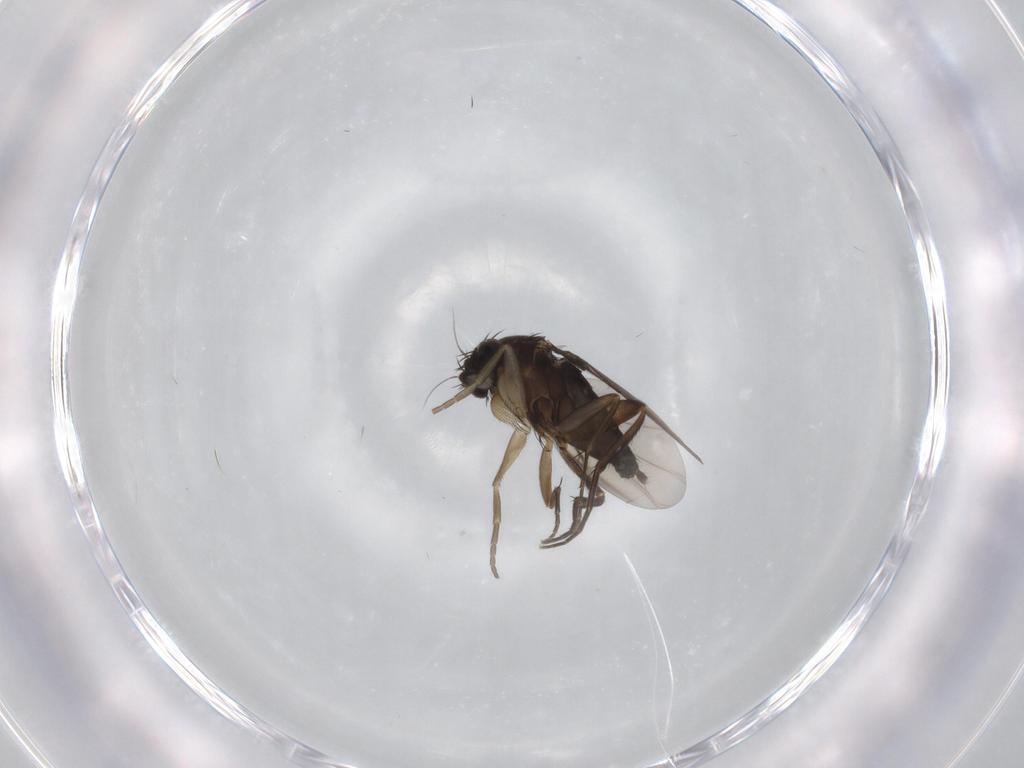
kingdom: Animalia
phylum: Arthropoda
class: Insecta
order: Diptera
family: Phoridae
